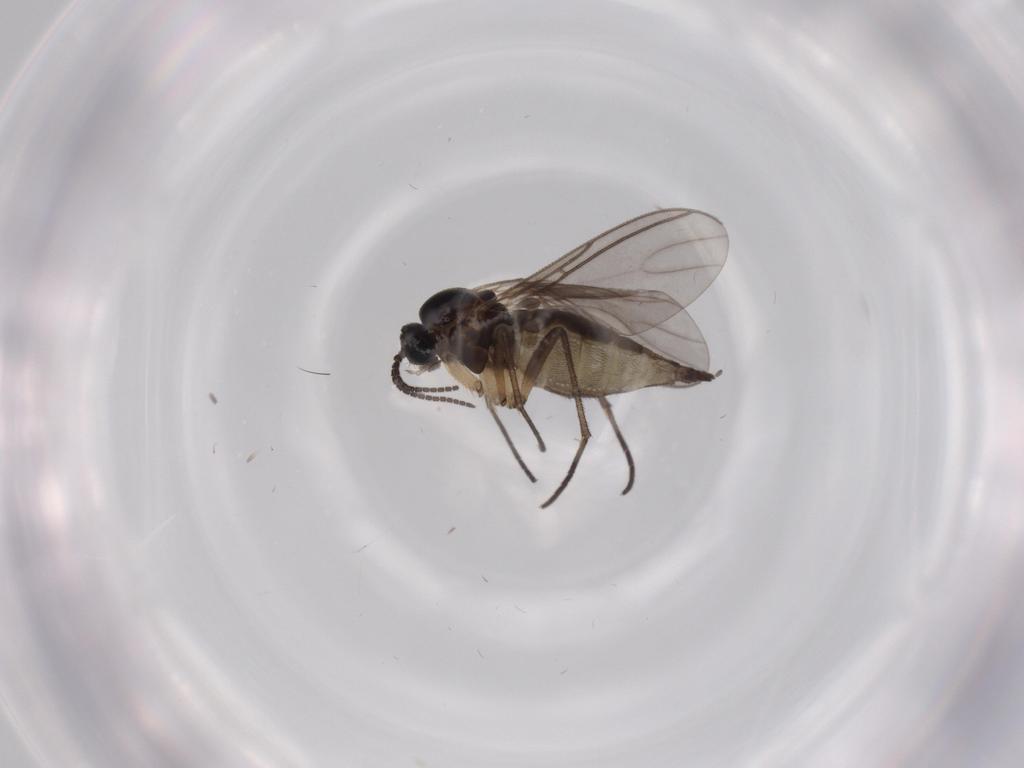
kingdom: Animalia
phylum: Arthropoda
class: Insecta
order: Diptera
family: Sciaridae
